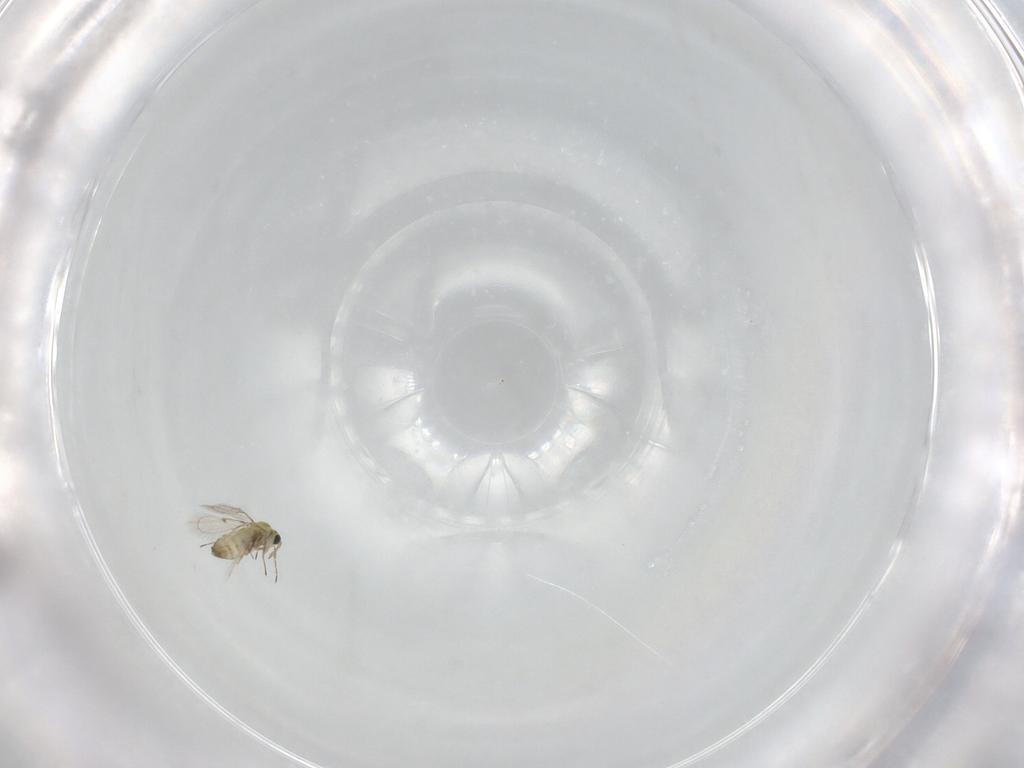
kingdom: Animalia
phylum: Arthropoda
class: Insecta
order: Hymenoptera
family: Trichogrammatidae
